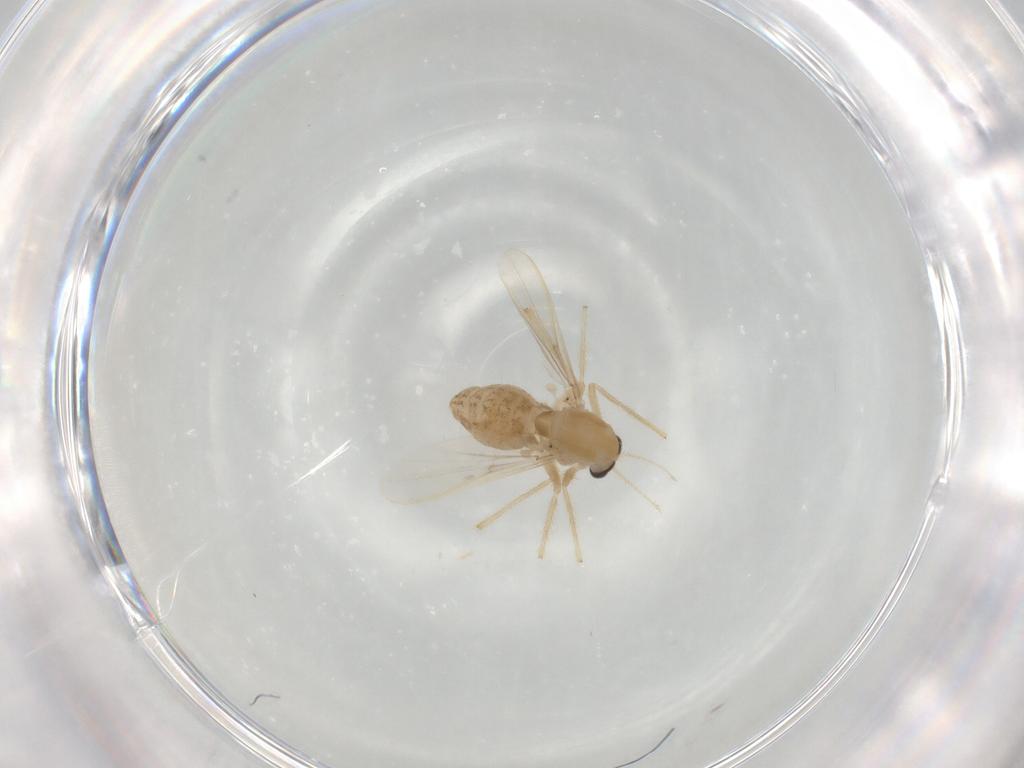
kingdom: Animalia
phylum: Arthropoda
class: Insecta
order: Diptera
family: Chironomidae
